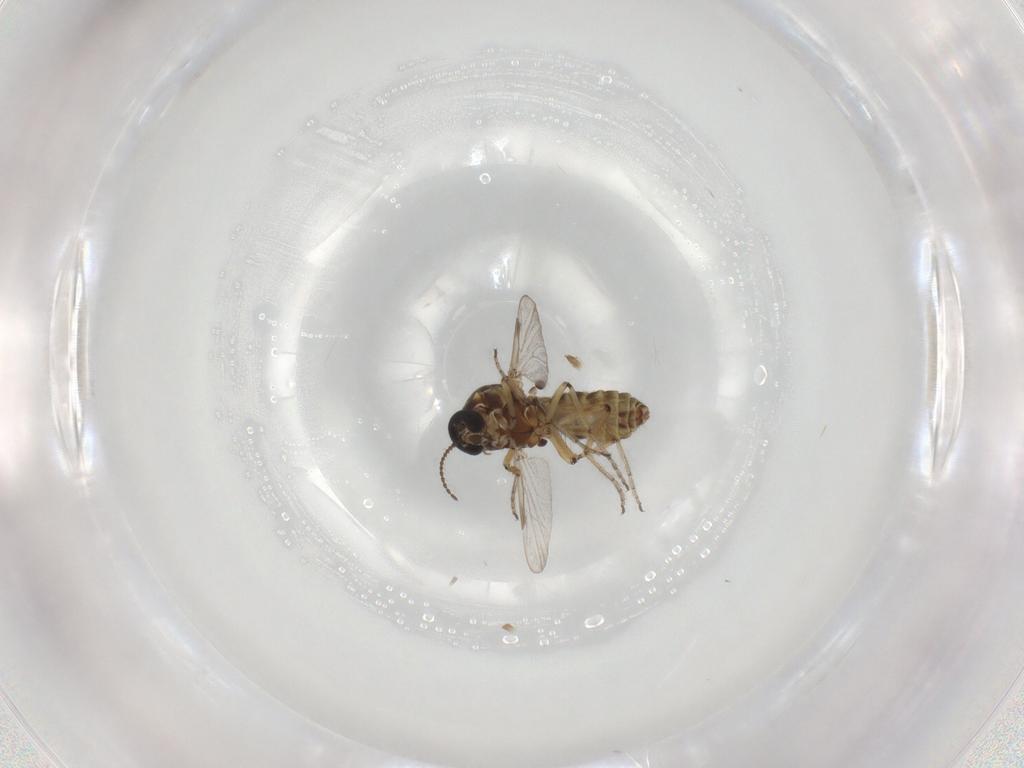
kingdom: Animalia
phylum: Arthropoda
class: Insecta
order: Diptera
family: Ceratopogonidae
